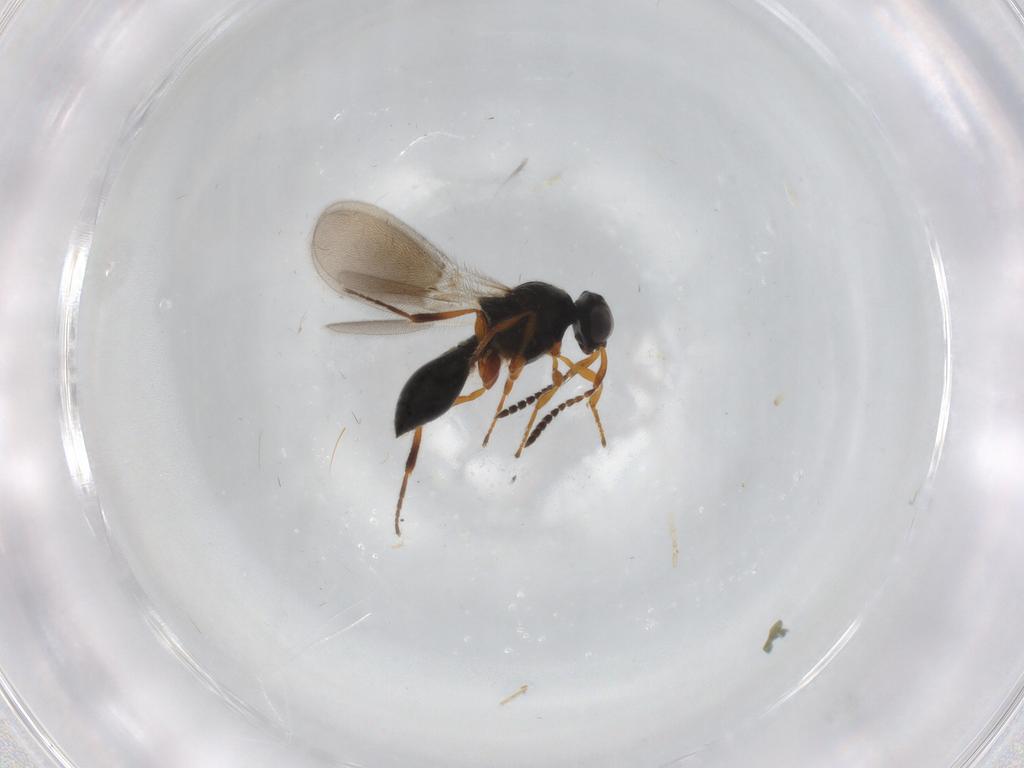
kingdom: Animalia
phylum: Arthropoda
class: Insecta
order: Hymenoptera
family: Platygastridae
